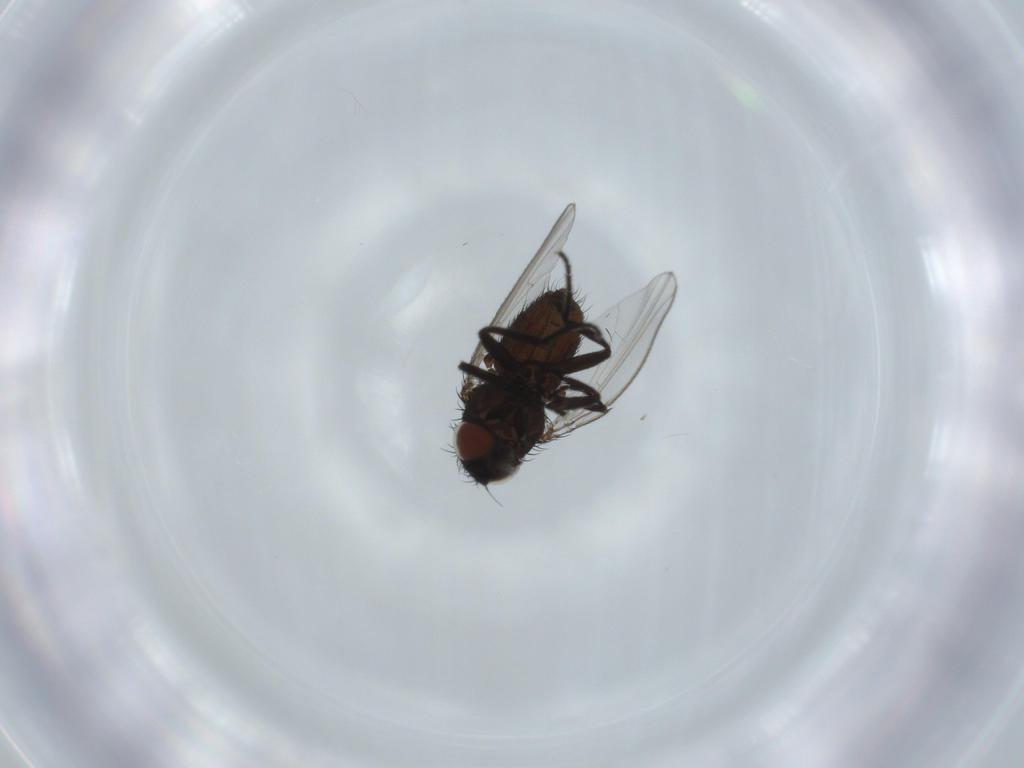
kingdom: Animalia
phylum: Arthropoda
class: Insecta
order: Diptera
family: Milichiidae
